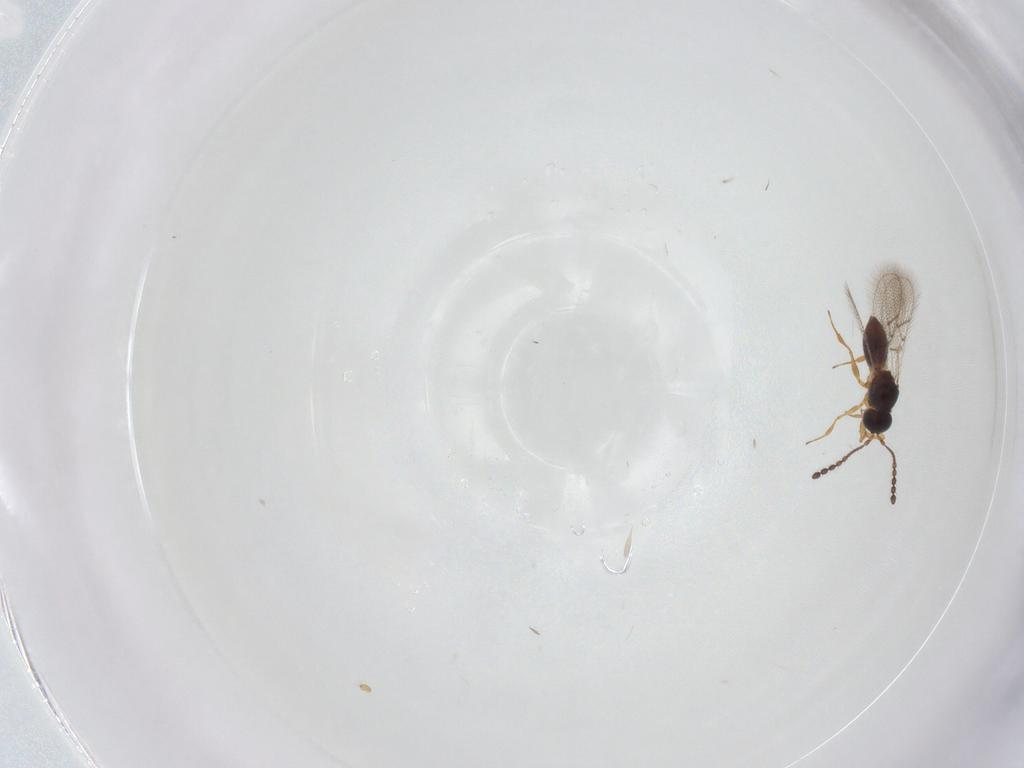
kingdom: Animalia
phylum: Arthropoda
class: Insecta
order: Hymenoptera
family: Figitidae
